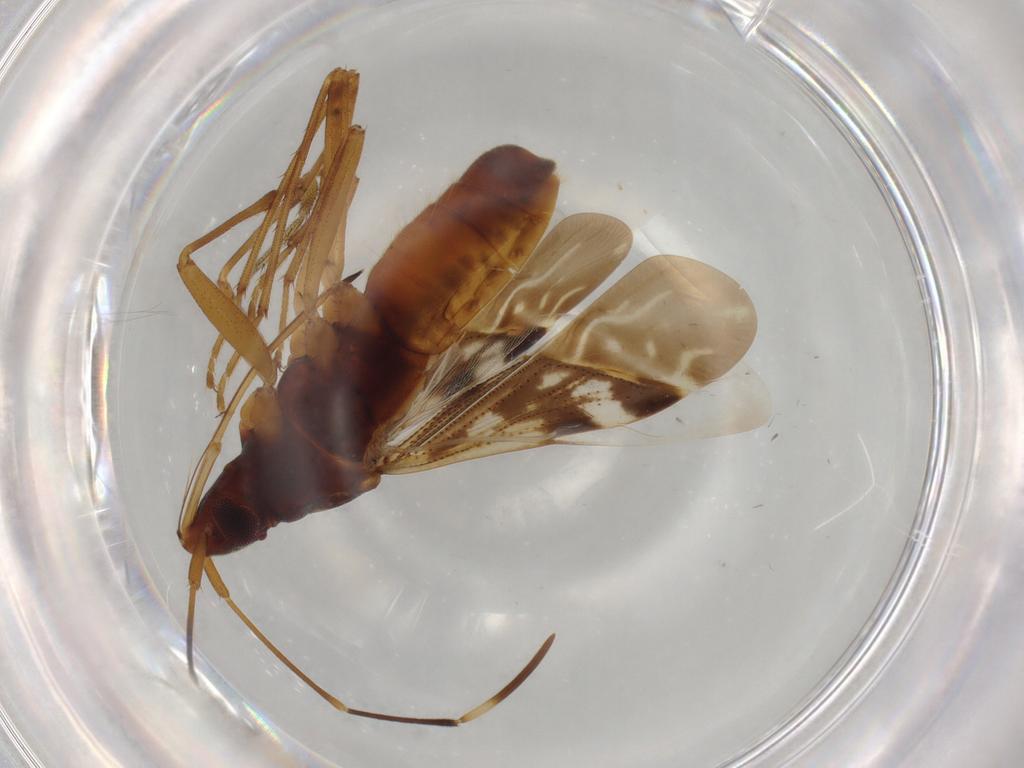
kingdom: Animalia
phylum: Arthropoda
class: Insecta
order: Hemiptera
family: Rhyparochromidae
